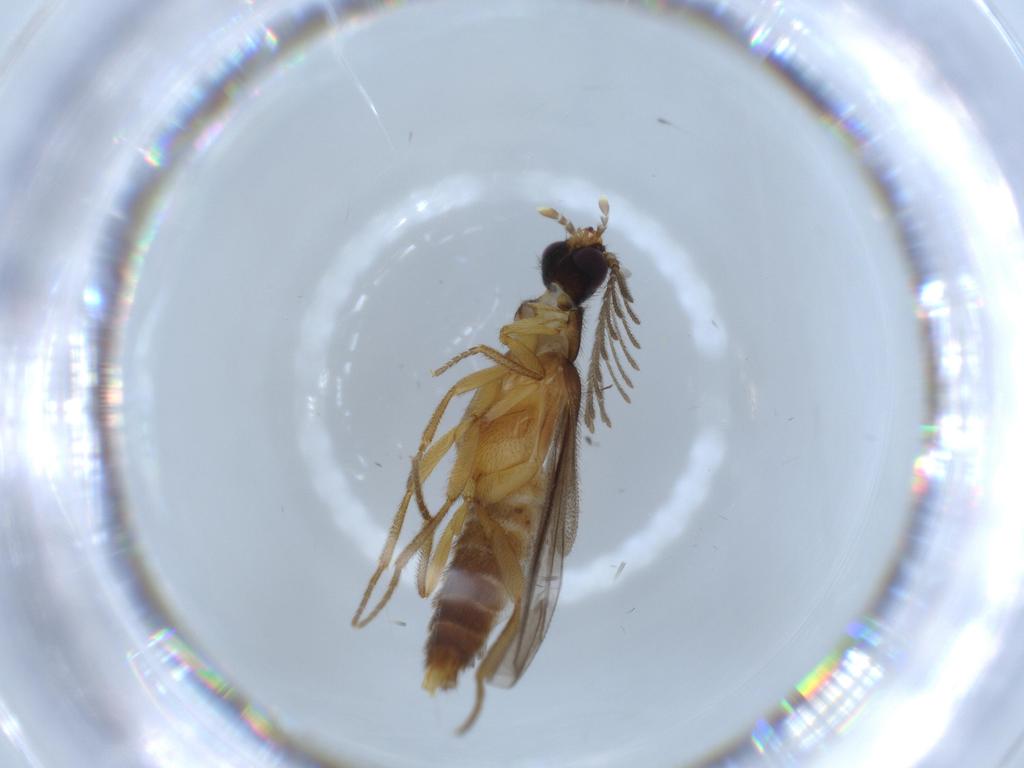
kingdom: Animalia
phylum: Arthropoda
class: Insecta
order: Coleoptera
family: Bostrichidae
